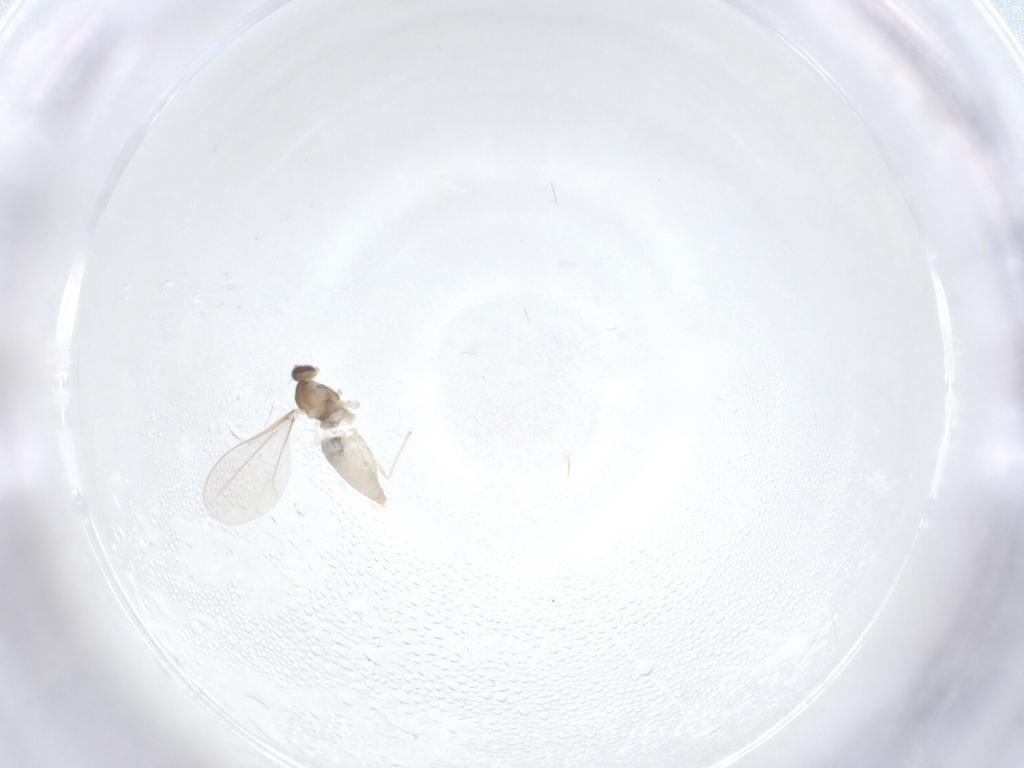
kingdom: Animalia
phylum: Arthropoda
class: Insecta
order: Diptera
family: Cecidomyiidae
